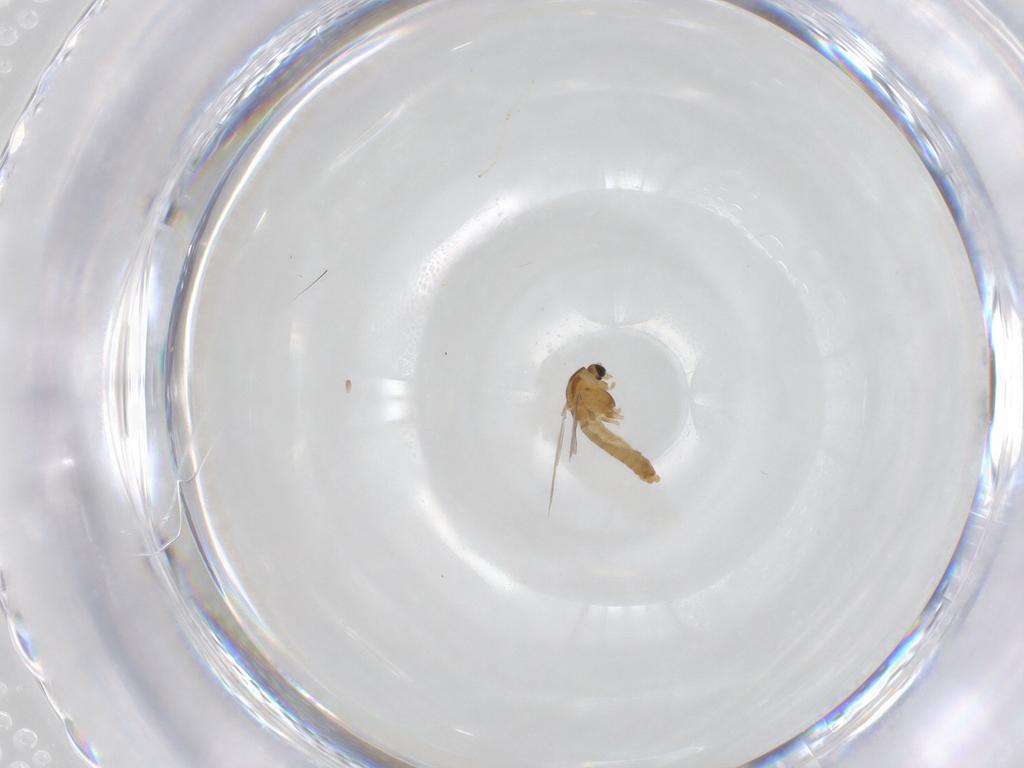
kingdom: Animalia
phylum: Arthropoda
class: Insecta
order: Diptera
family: Cecidomyiidae
